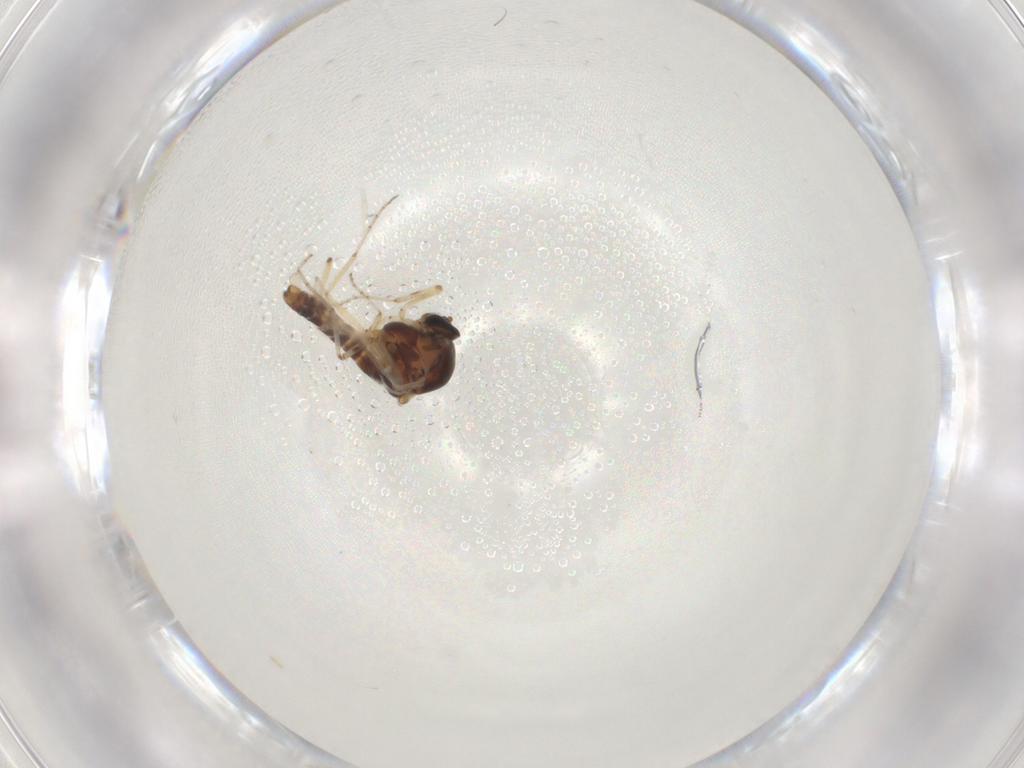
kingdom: Animalia
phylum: Arthropoda
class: Insecta
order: Diptera
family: Ceratopogonidae
